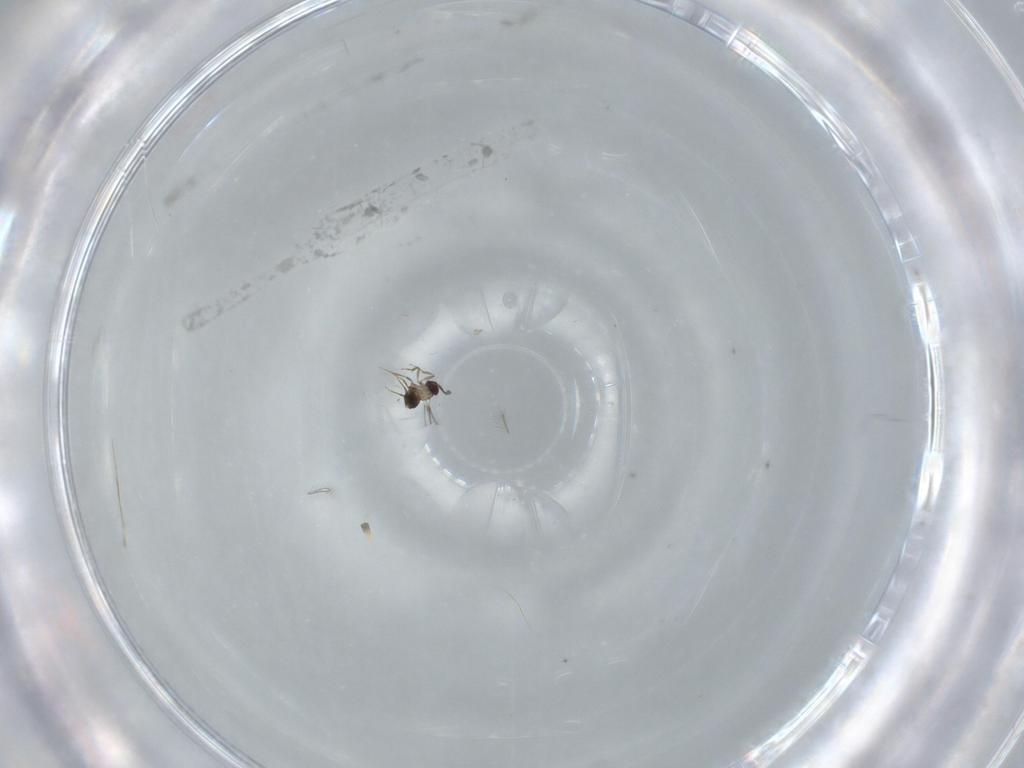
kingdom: Animalia
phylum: Arthropoda
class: Insecta
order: Hymenoptera
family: Mymaridae
